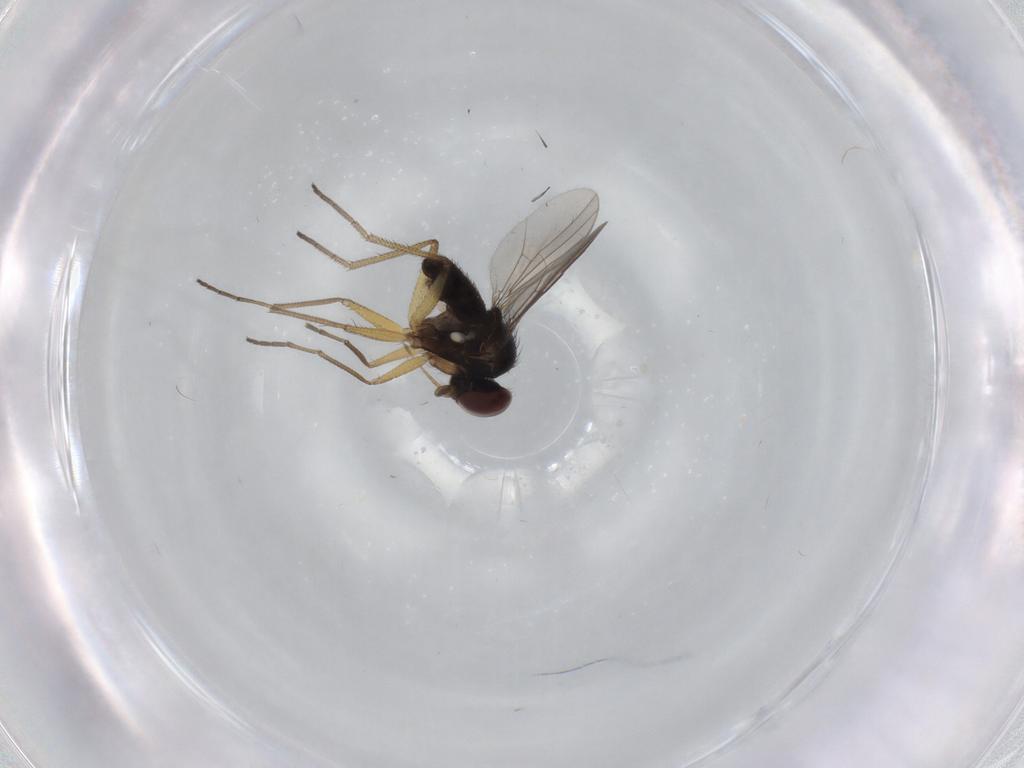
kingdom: Animalia
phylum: Arthropoda
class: Insecta
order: Diptera
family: Dolichopodidae
